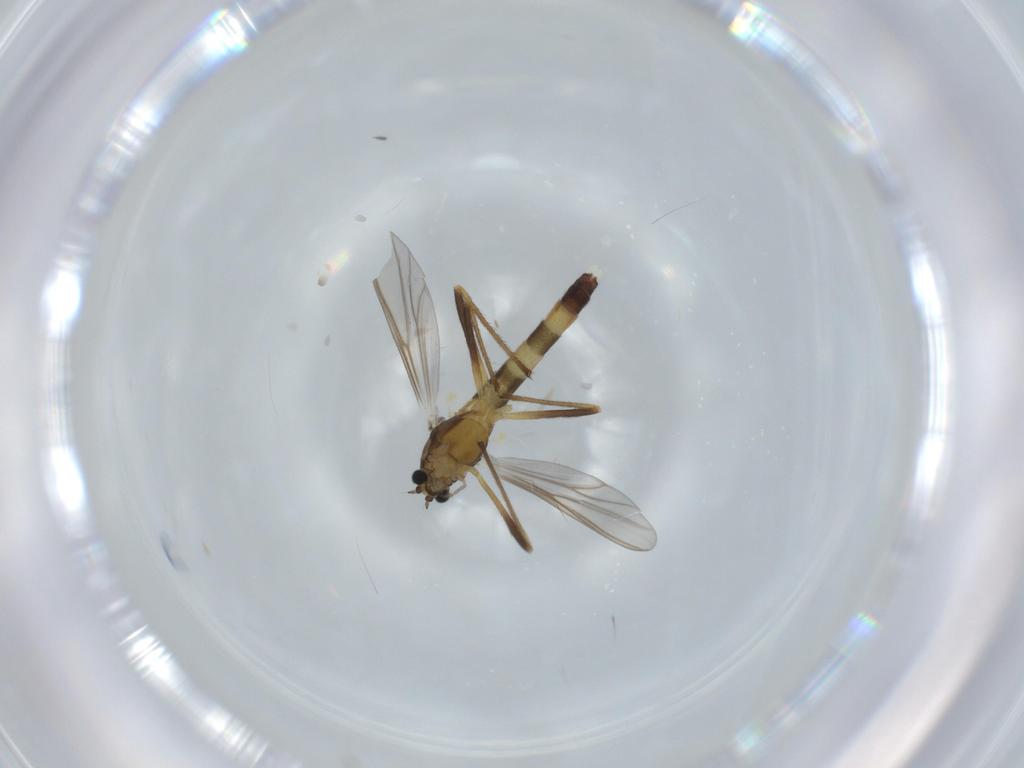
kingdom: Animalia
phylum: Arthropoda
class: Insecta
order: Diptera
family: Chironomidae
